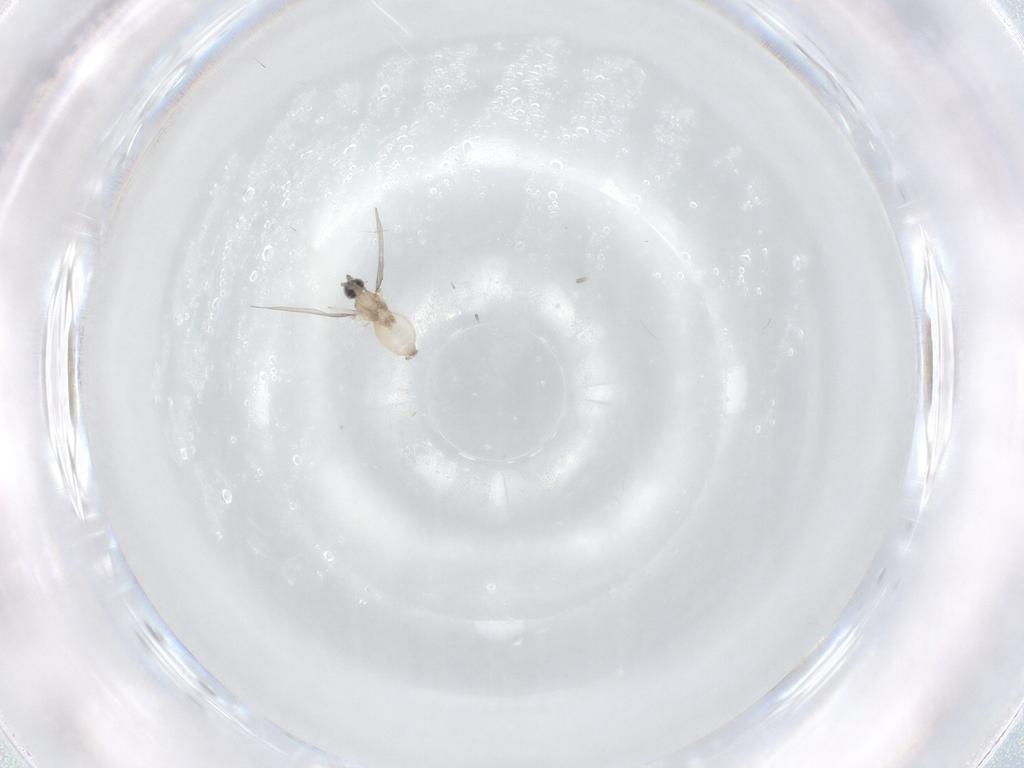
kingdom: Animalia
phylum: Arthropoda
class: Insecta
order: Diptera
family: Cecidomyiidae
